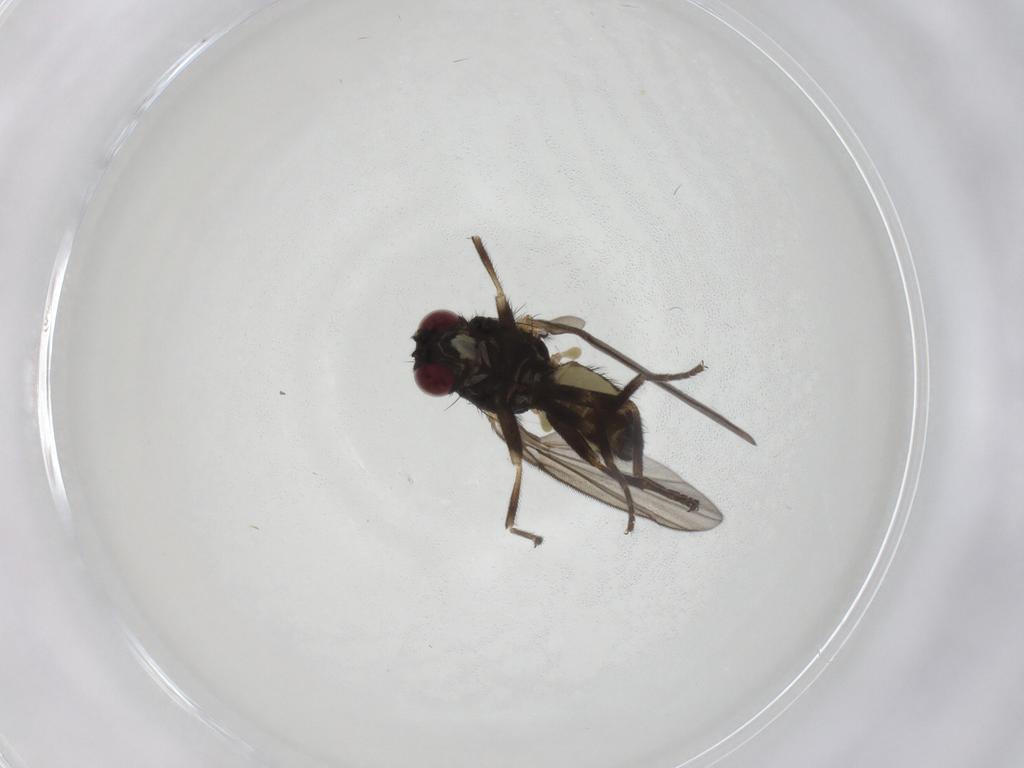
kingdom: Animalia
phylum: Arthropoda
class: Insecta
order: Diptera
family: Agromyzidae
